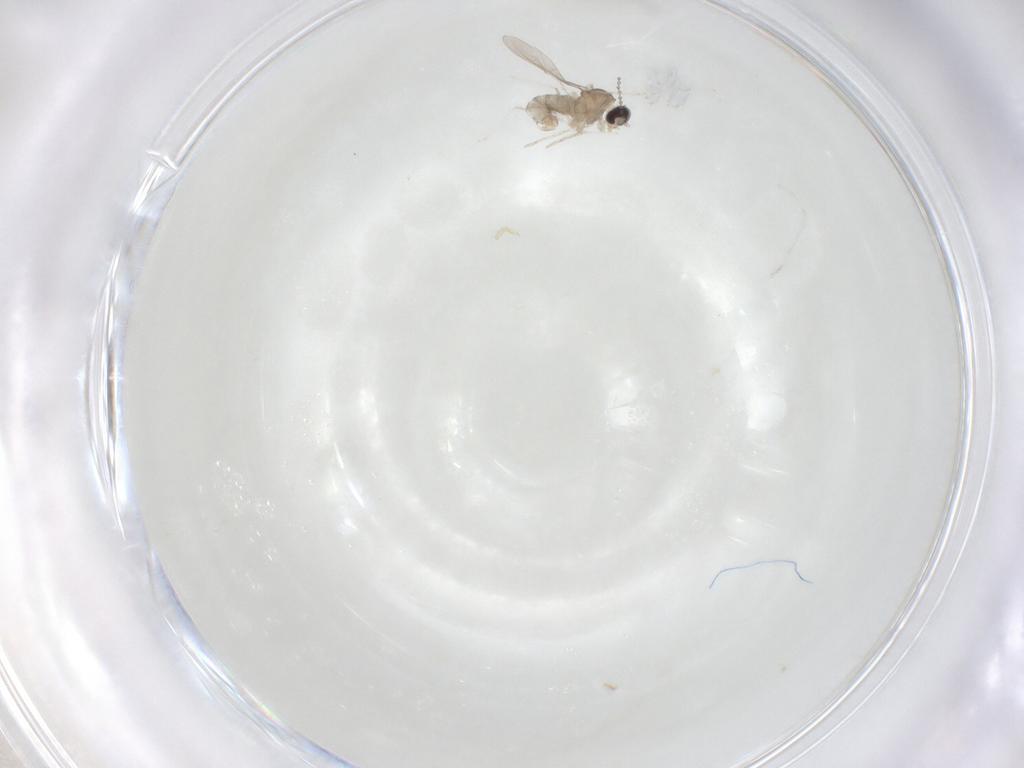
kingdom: Animalia
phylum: Arthropoda
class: Insecta
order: Diptera
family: Cecidomyiidae
